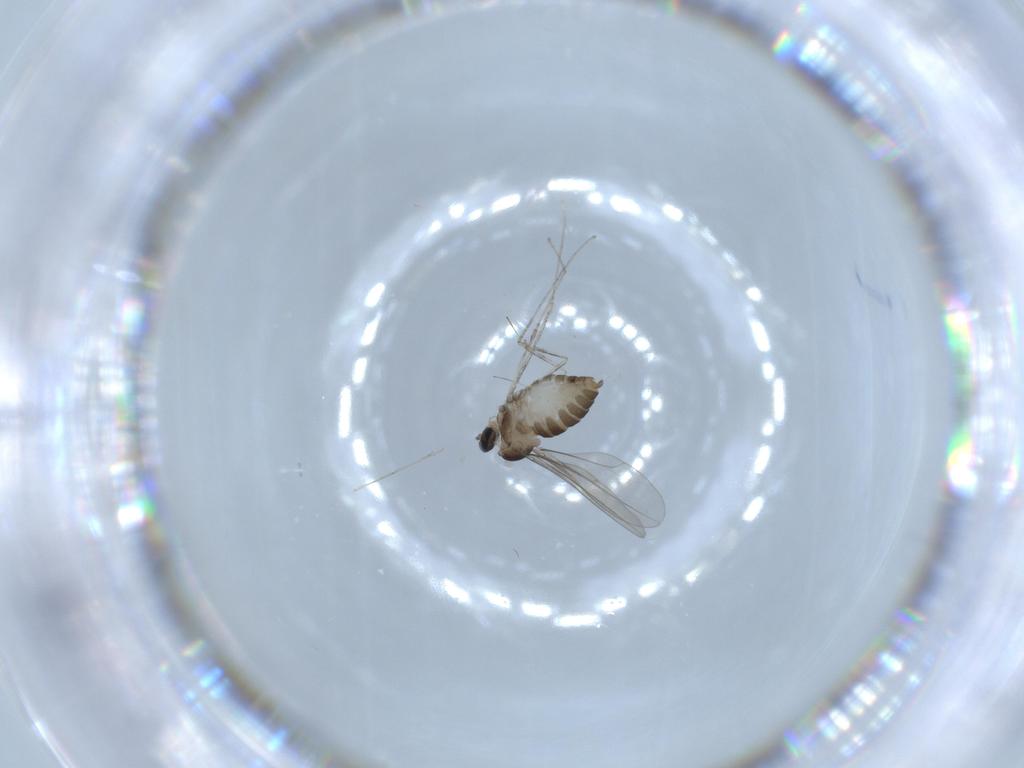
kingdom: Animalia
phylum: Arthropoda
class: Insecta
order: Diptera
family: Cecidomyiidae
